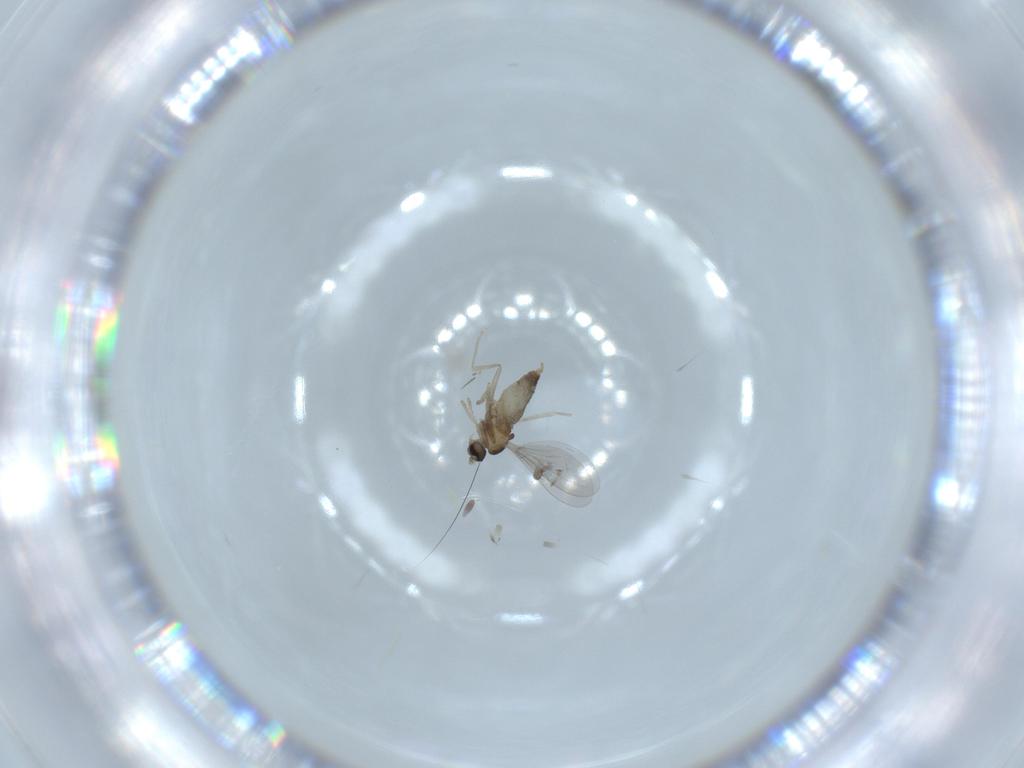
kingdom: Animalia
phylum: Arthropoda
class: Insecta
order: Diptera
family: Cecidomyiidae
